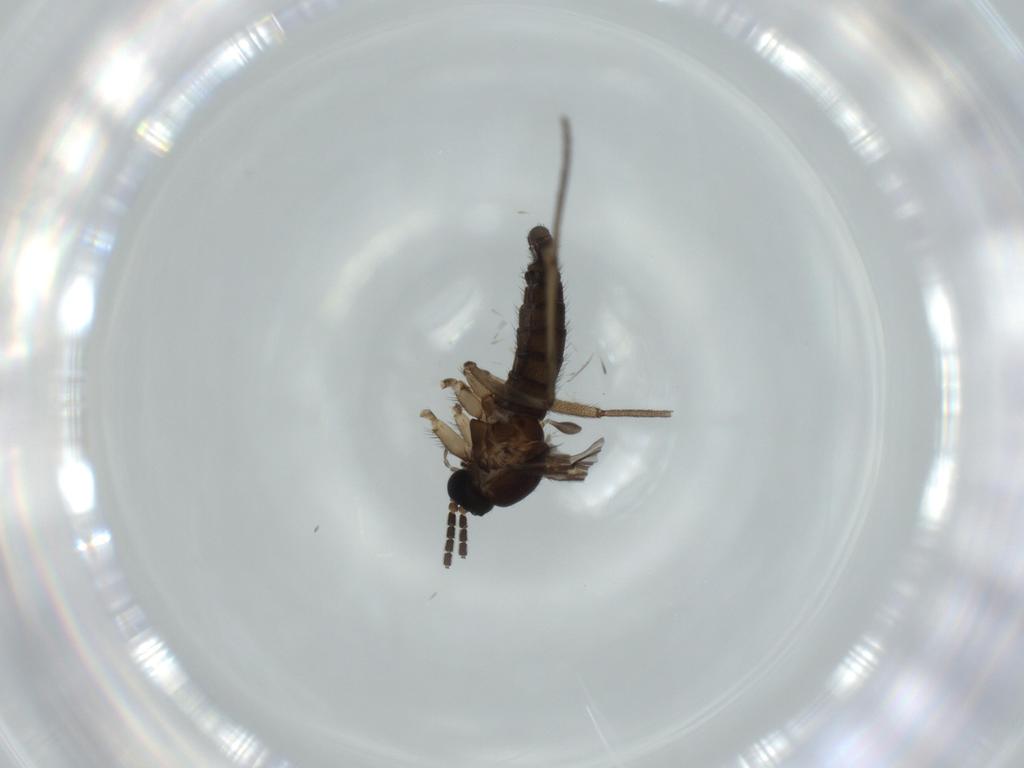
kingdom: Animalia
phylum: Arthropoda
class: Insecta
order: Diptera
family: Sciaridae
